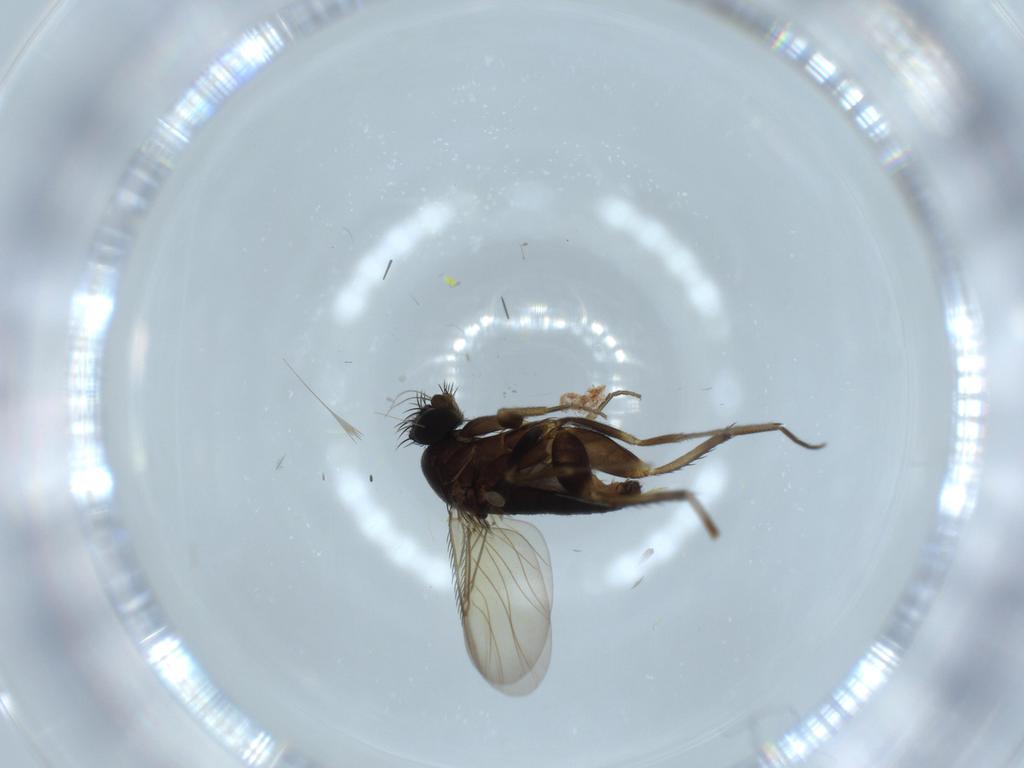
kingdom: Animalia
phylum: Arthropoda
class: Insecta
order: Diptera
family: Phoridae
